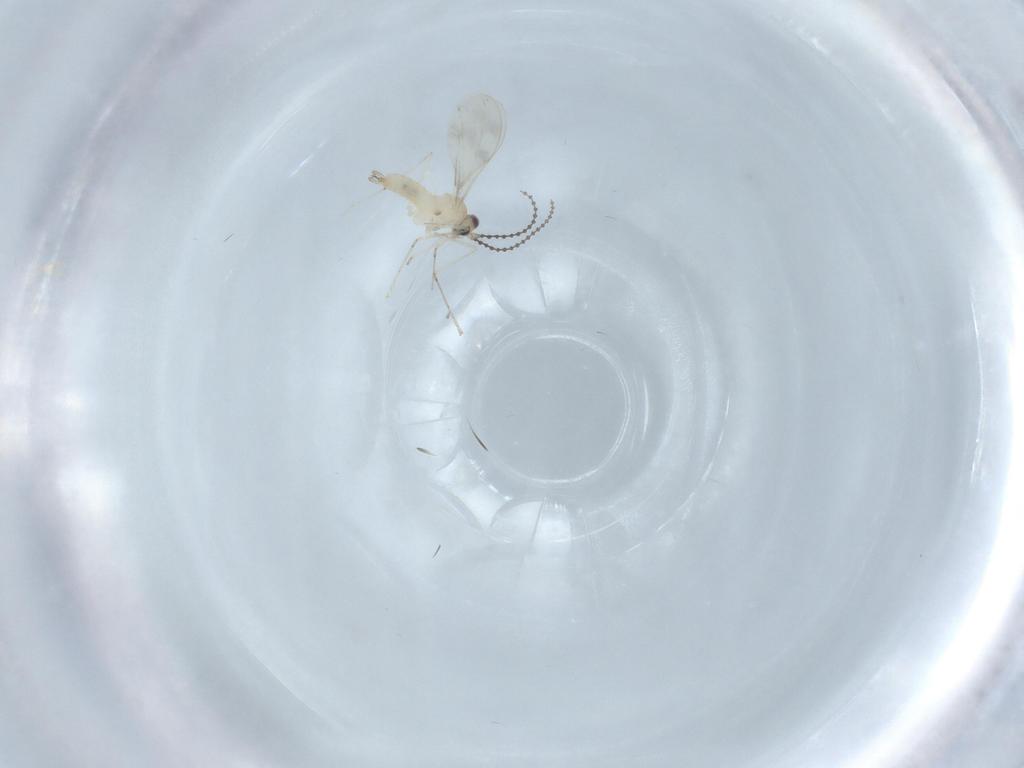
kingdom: Animalia
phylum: Arthropoda
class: Insecta
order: Diptera
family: Cecidomyiidae
